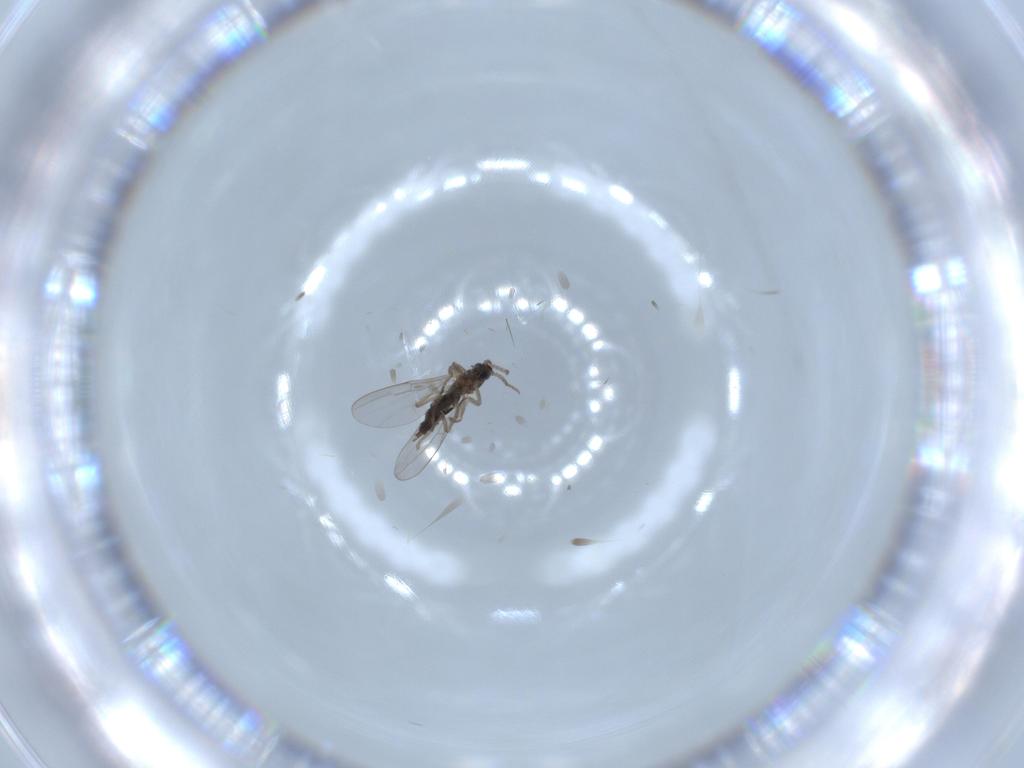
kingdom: Animalia
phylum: Arthropoda
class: Insecta
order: Diptera
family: Cecidomyiidae
